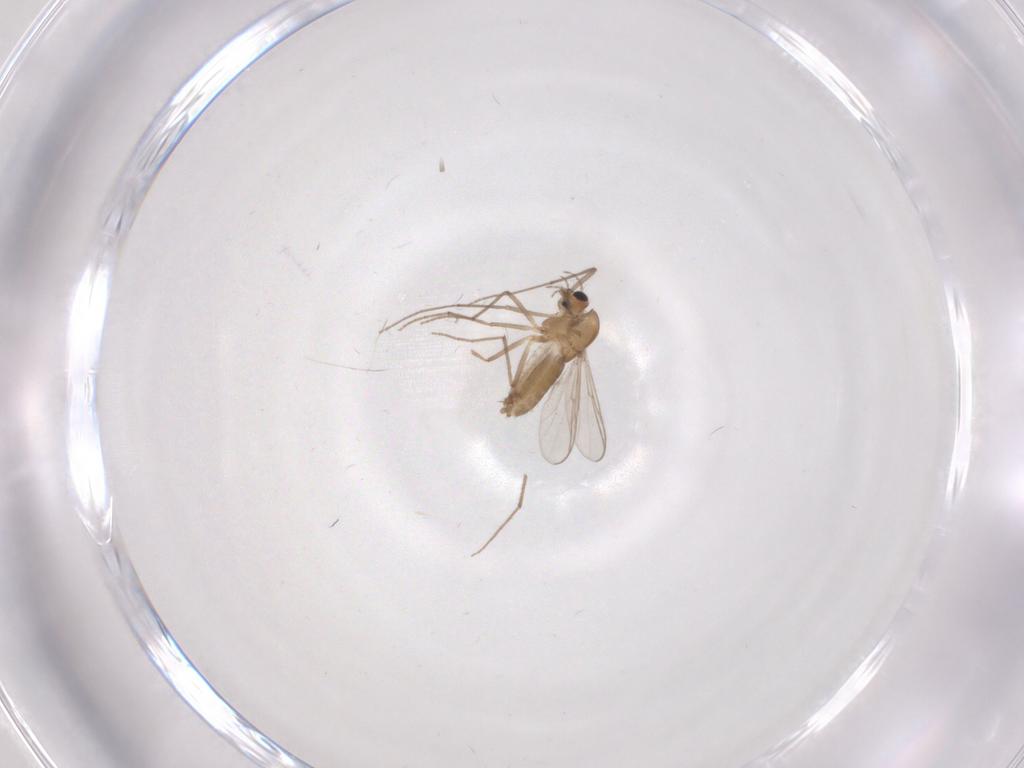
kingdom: Animalia
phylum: Arthropoda
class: Insecta
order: Diptera
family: Chironomidae
